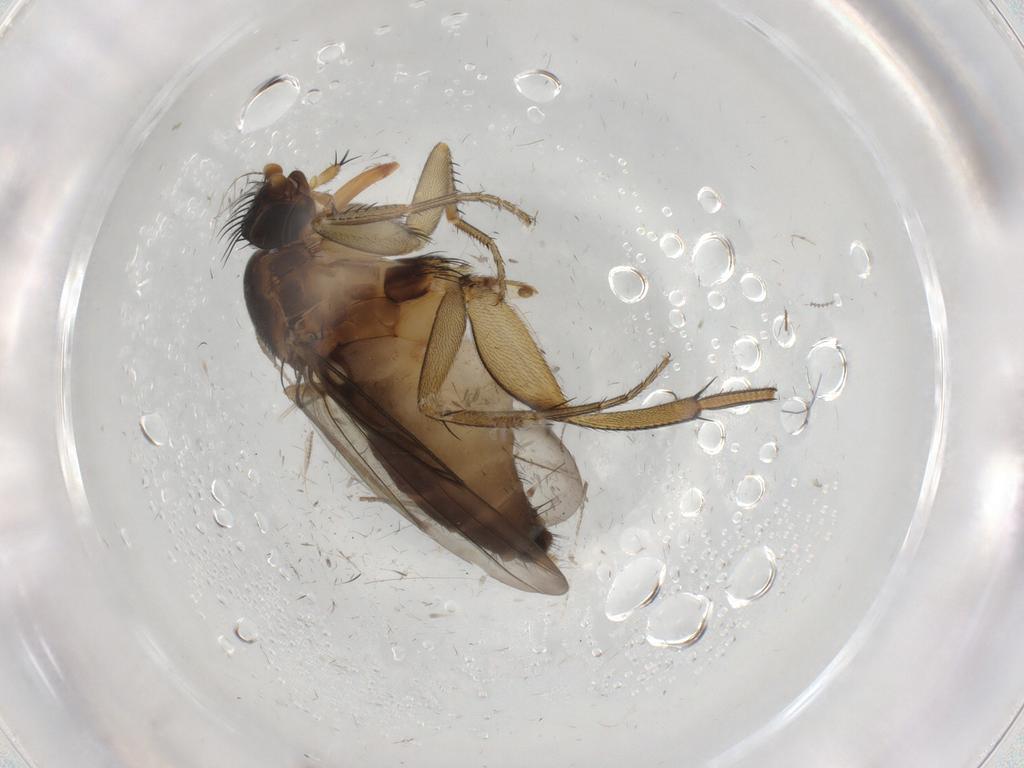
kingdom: Animalia
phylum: Arthropoda
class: Insecta
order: Diptera
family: Sciaridae
